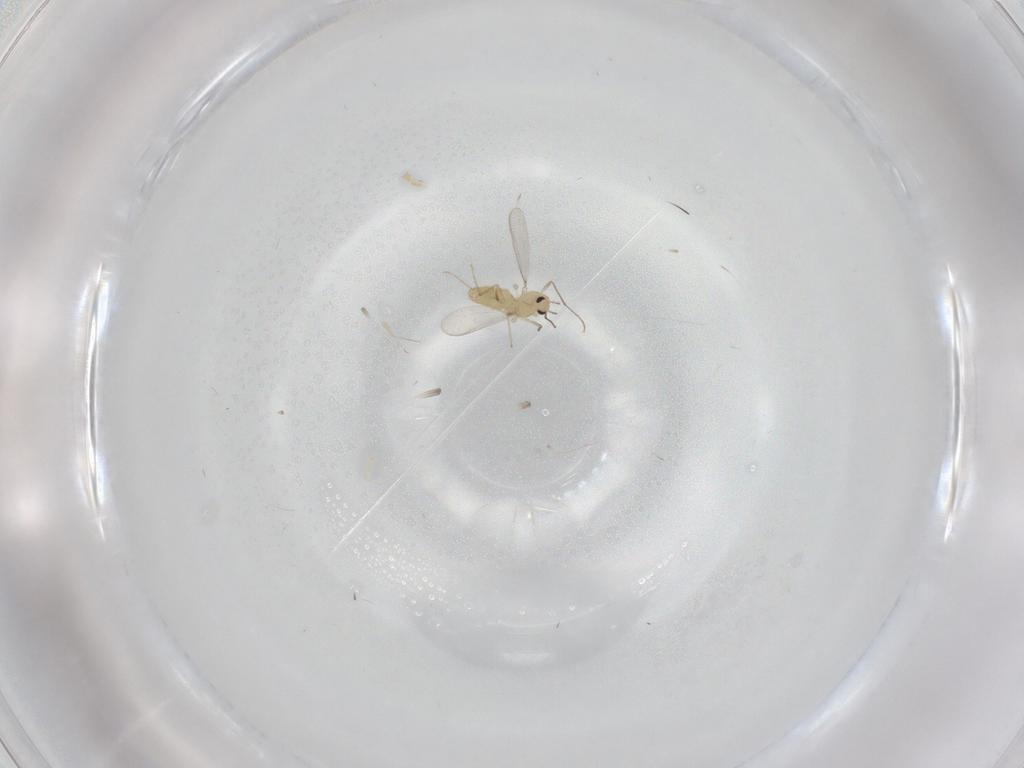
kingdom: Animalia
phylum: Arthropoda
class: Insecta
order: Diptera
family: Chironomidae
